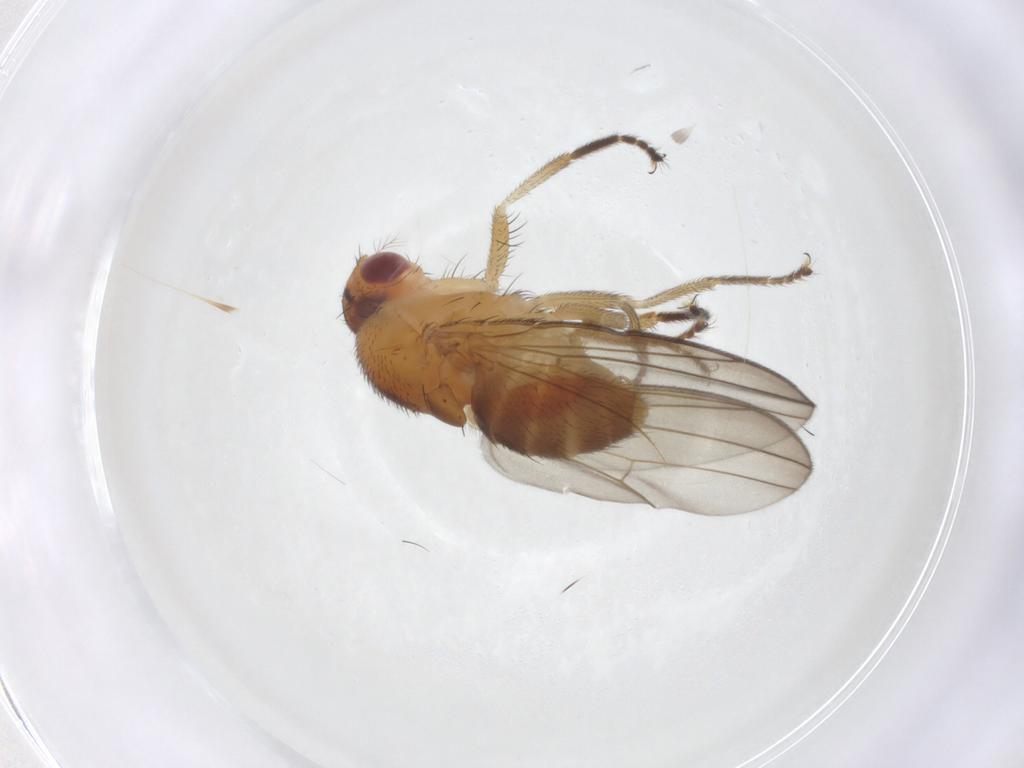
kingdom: Animalia
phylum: Arthropoda
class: Insecta
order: Diptera
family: Drosophilidae
